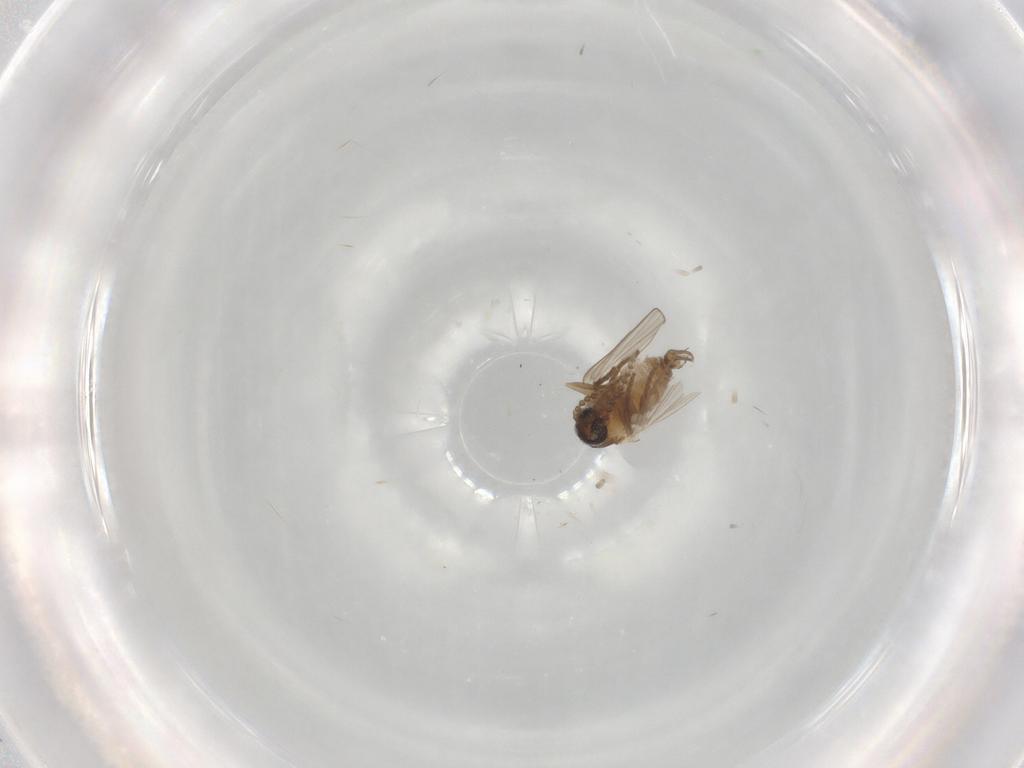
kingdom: Animalia
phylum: Arthropoda
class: Insecta
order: Diptera
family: Psychodidae
